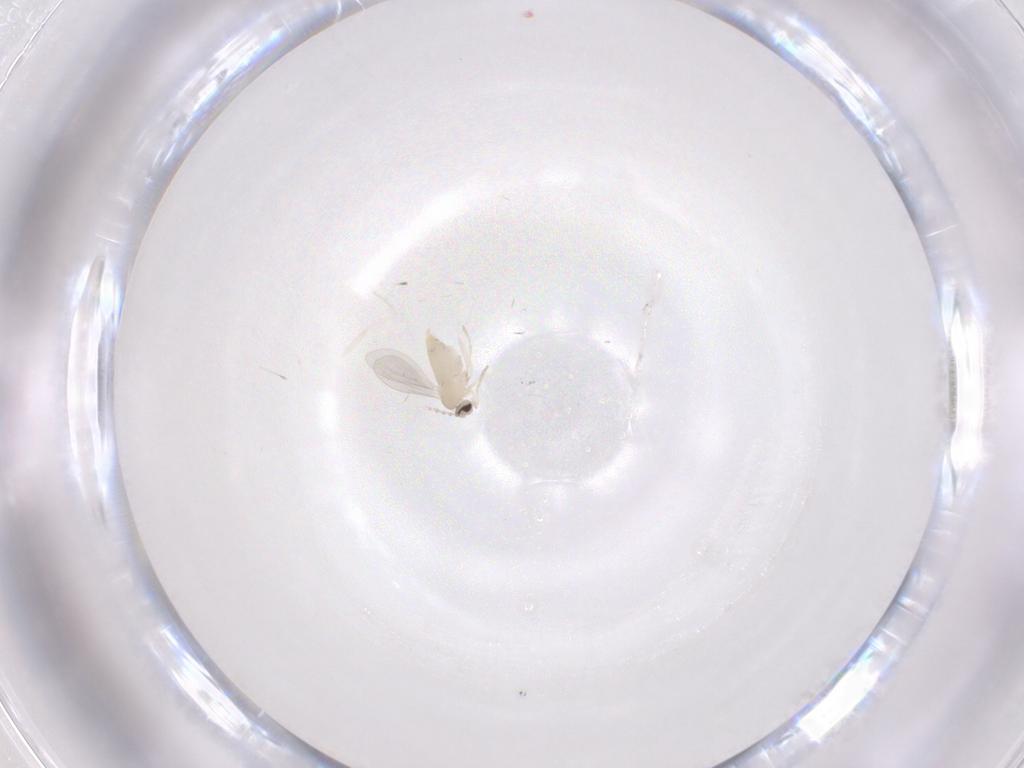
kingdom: Animalia
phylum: Arthropoda
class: Insecta
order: Diptera
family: Cecidomyiidae
